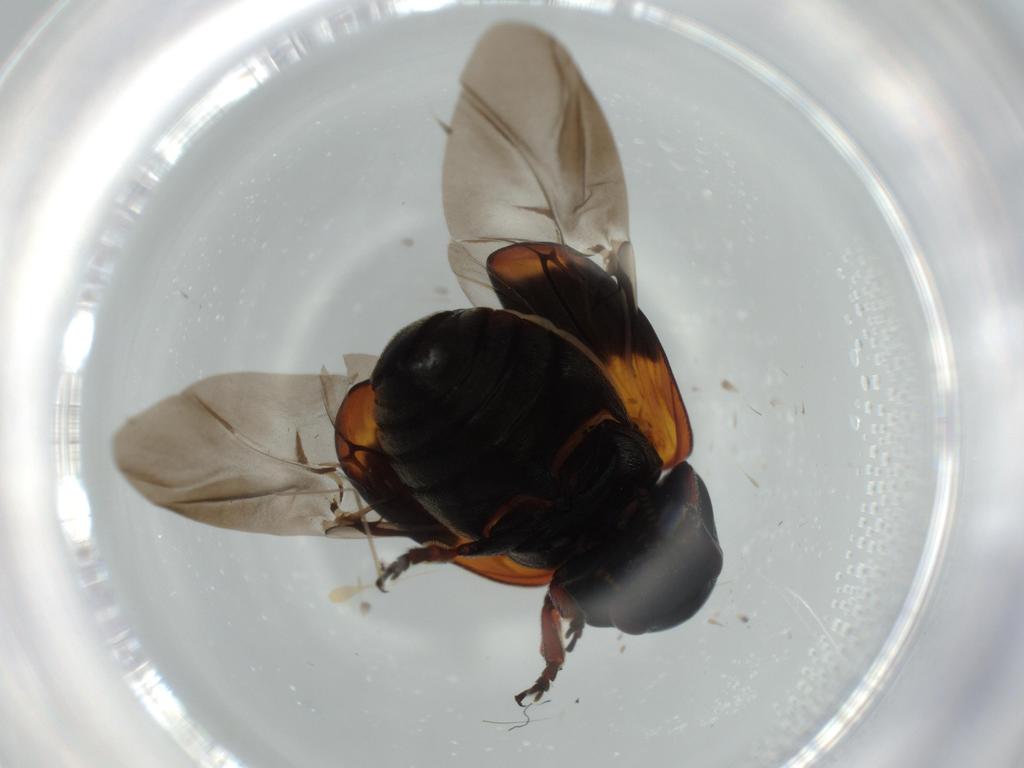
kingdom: Animalia
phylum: Arthropoda
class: Insecta
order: Coleoptera
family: Chrysomelidae
